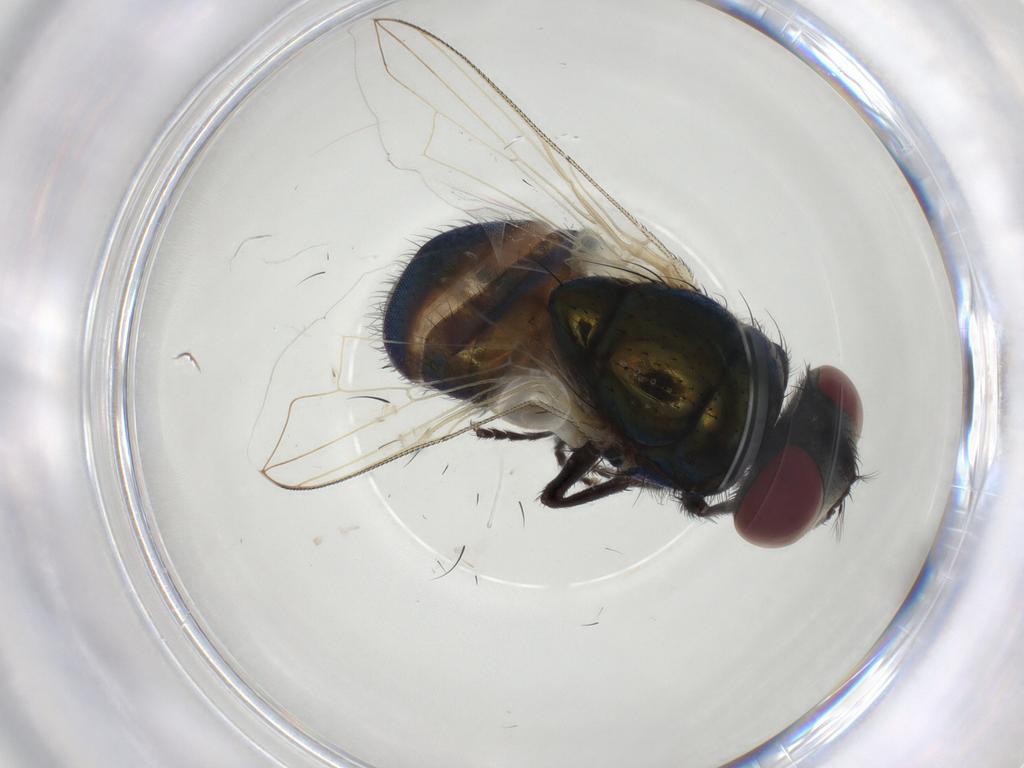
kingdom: Animalia
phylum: Arthropoda
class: Insecta
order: Diptera
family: Muscidae
